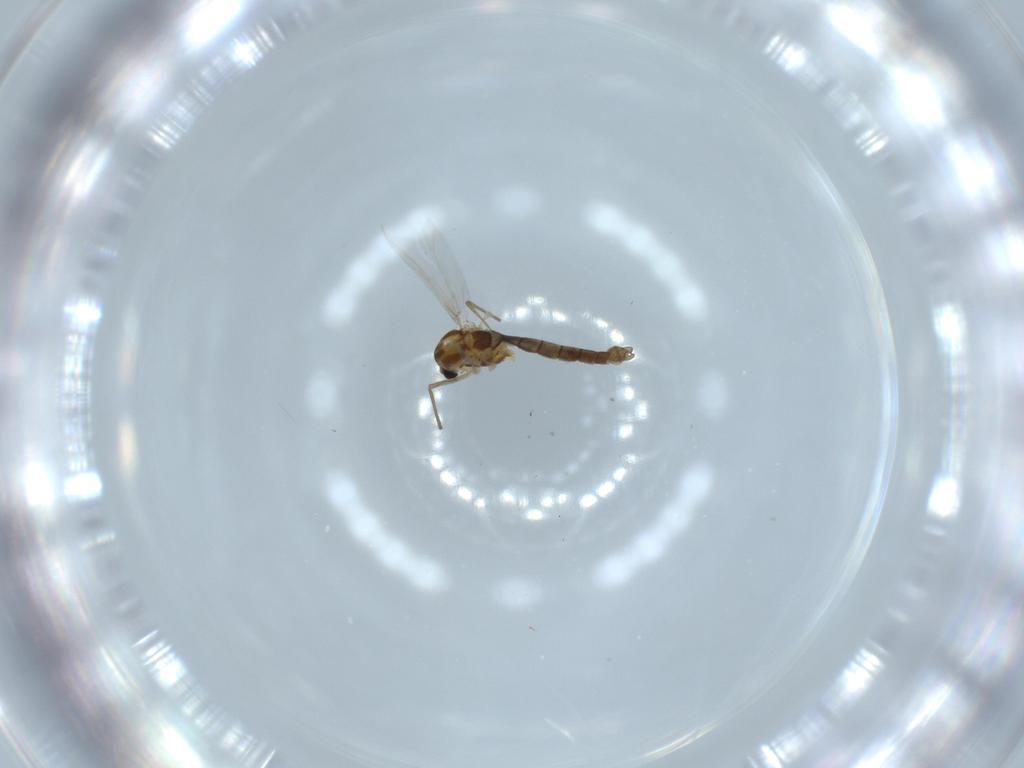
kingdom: Animalia
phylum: Arthropoda
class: Insecta
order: Diptera
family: Chironomidae
